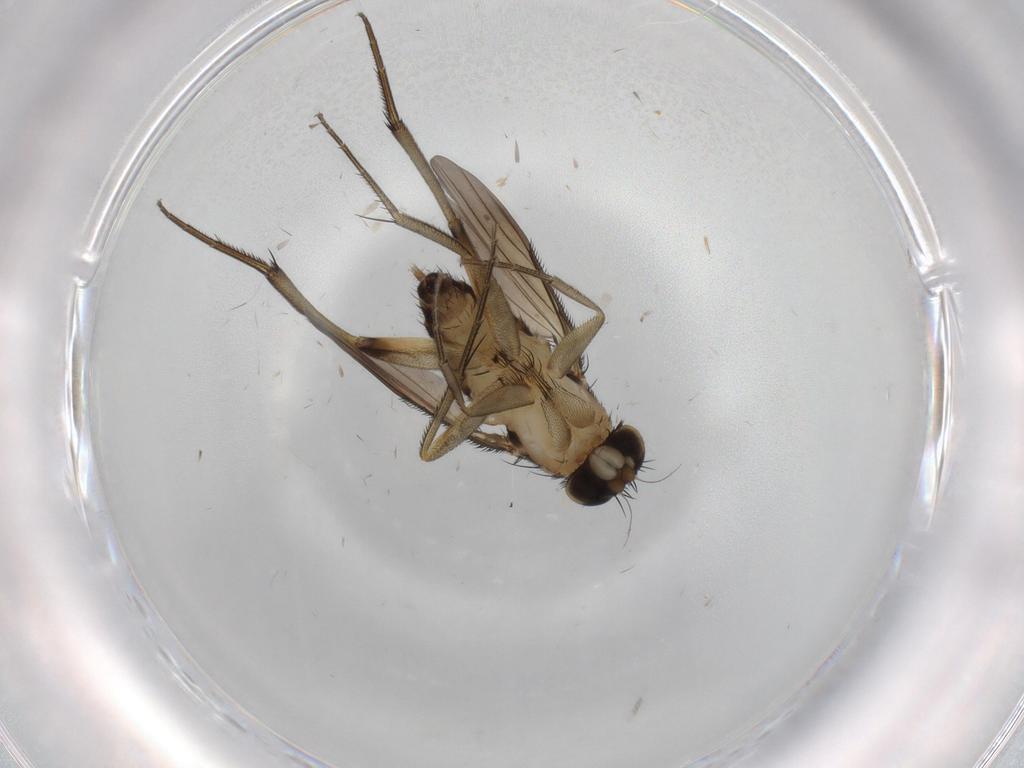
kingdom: Animalia
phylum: Arthropoda
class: Insecta
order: Diptera
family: Phoridae
